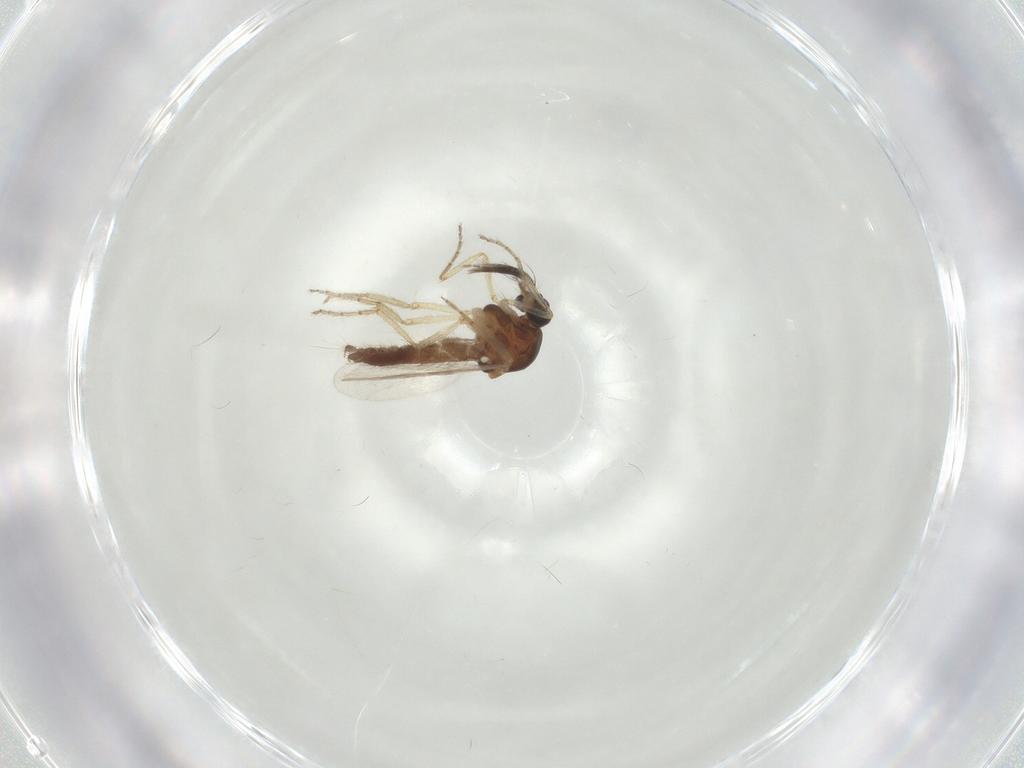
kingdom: Animalia
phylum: Arthropoda
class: Insecta
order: Diptera
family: Ceratopogonidae
